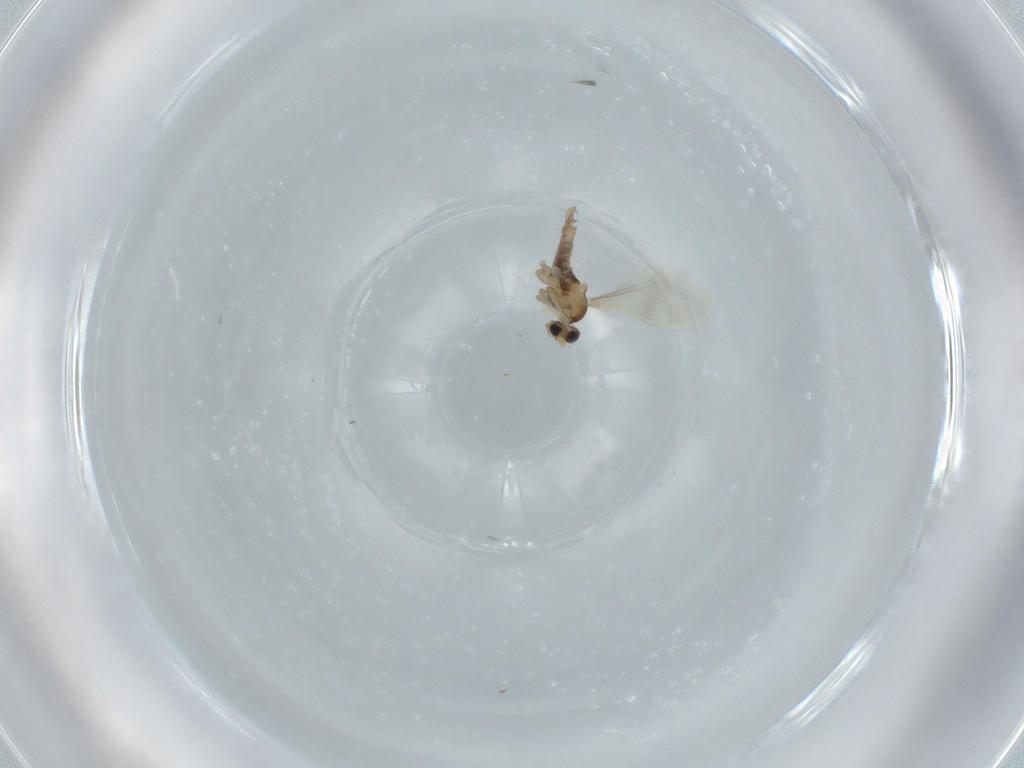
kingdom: Animalia
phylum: Arthropoda
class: Insecta
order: Diptera
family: Cecidomyiidae
